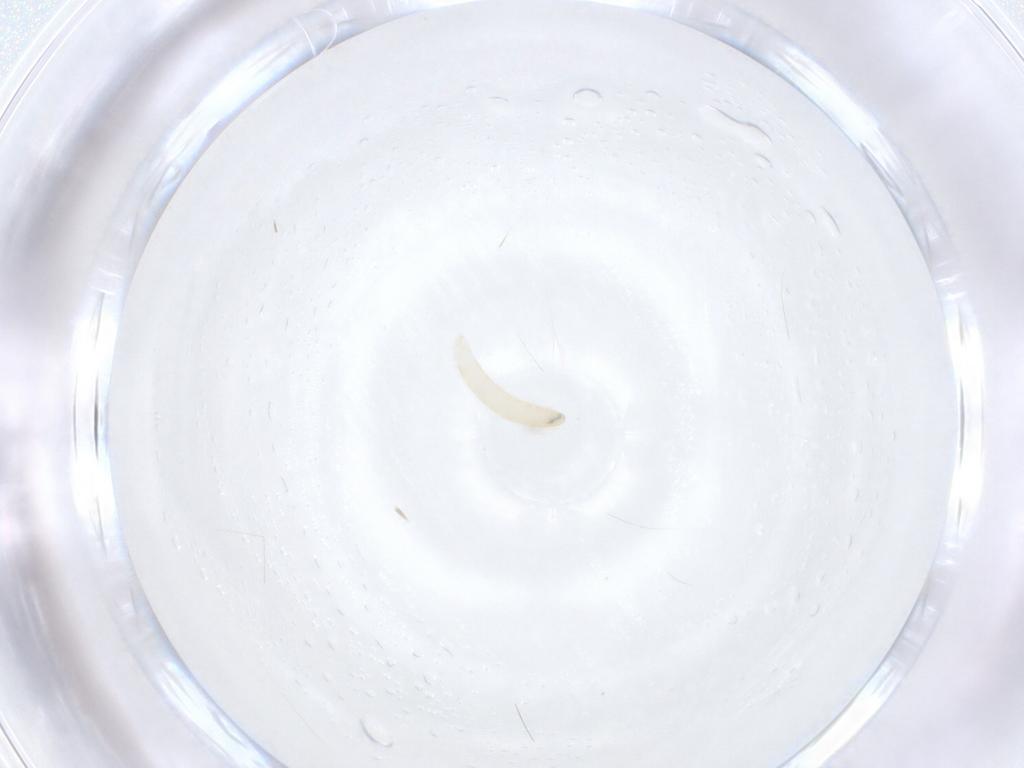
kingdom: Animalia
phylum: Arthropoda
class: Insecta
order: Diptera
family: Tachinidae
